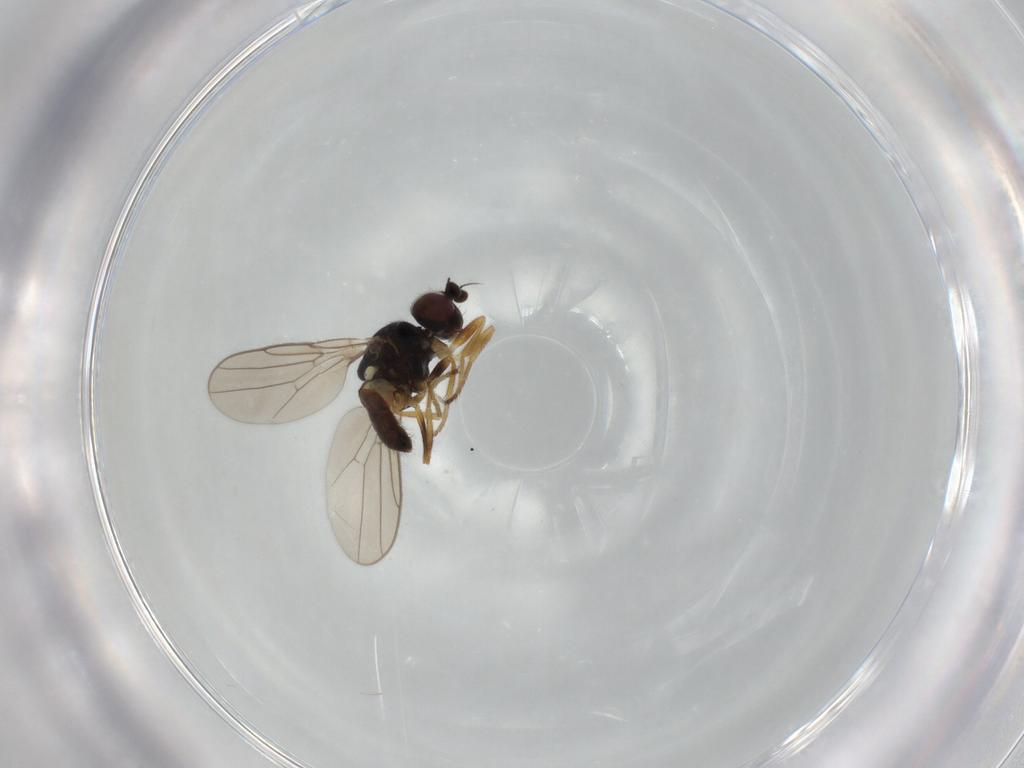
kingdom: Animalia
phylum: Arthropoda
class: Insecta
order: Diptera
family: Chloropidae
